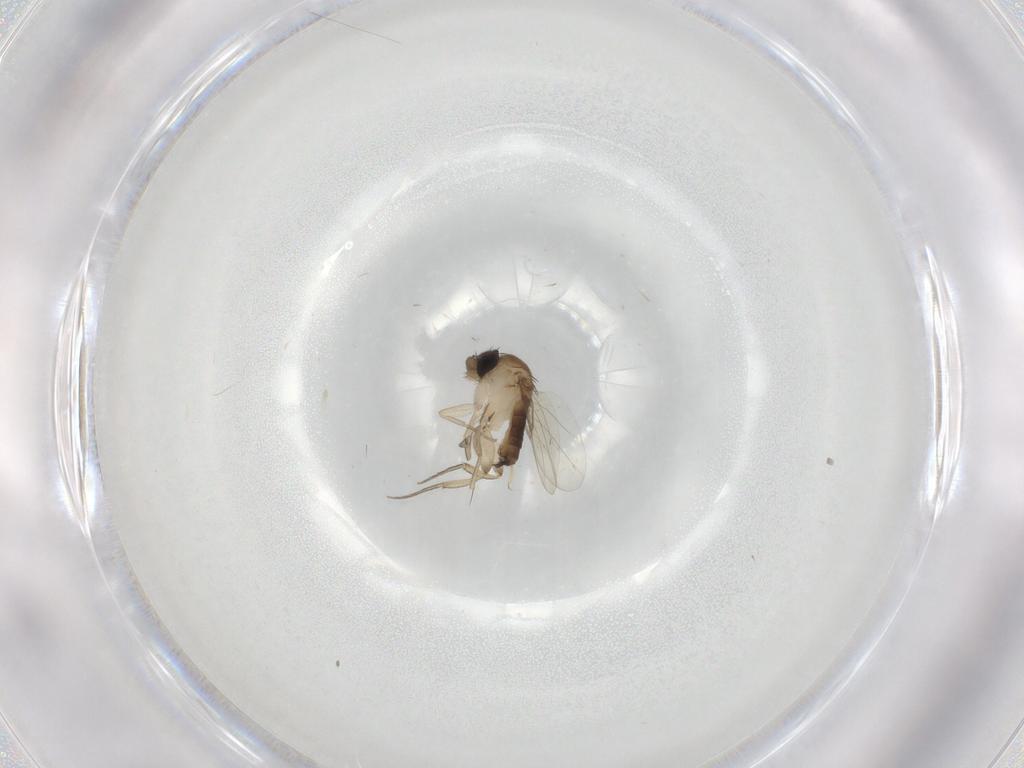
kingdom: Animalia
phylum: Arthropoda
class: Insecta
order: Diptera
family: Phoridae
